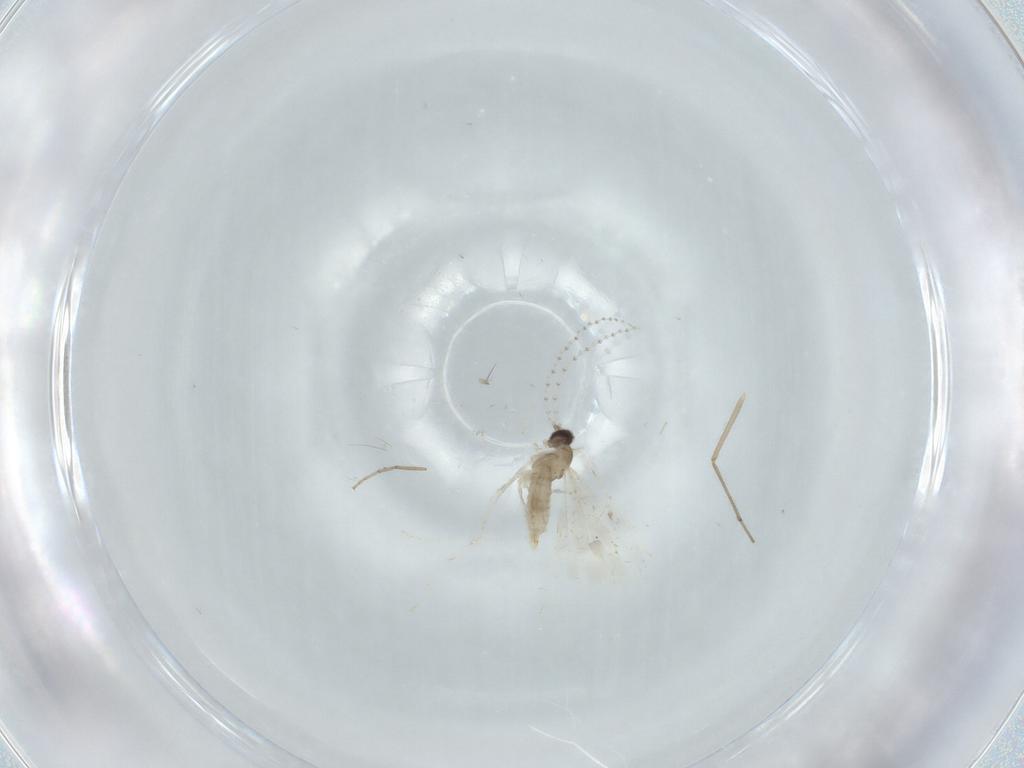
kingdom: Animalia
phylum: Arthropoda
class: Insecta
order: Diptera
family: Cecidomyiidae
